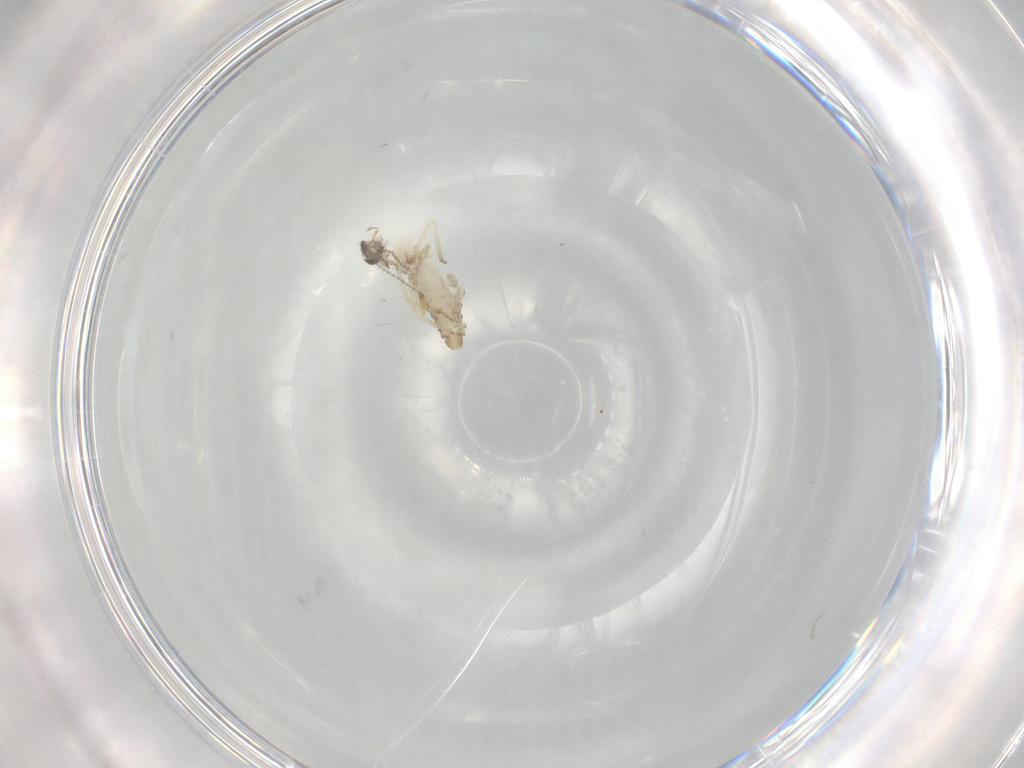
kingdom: Animalia
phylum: Arthropoda
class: Insecta
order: Diptera
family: Ceratopogonidae
